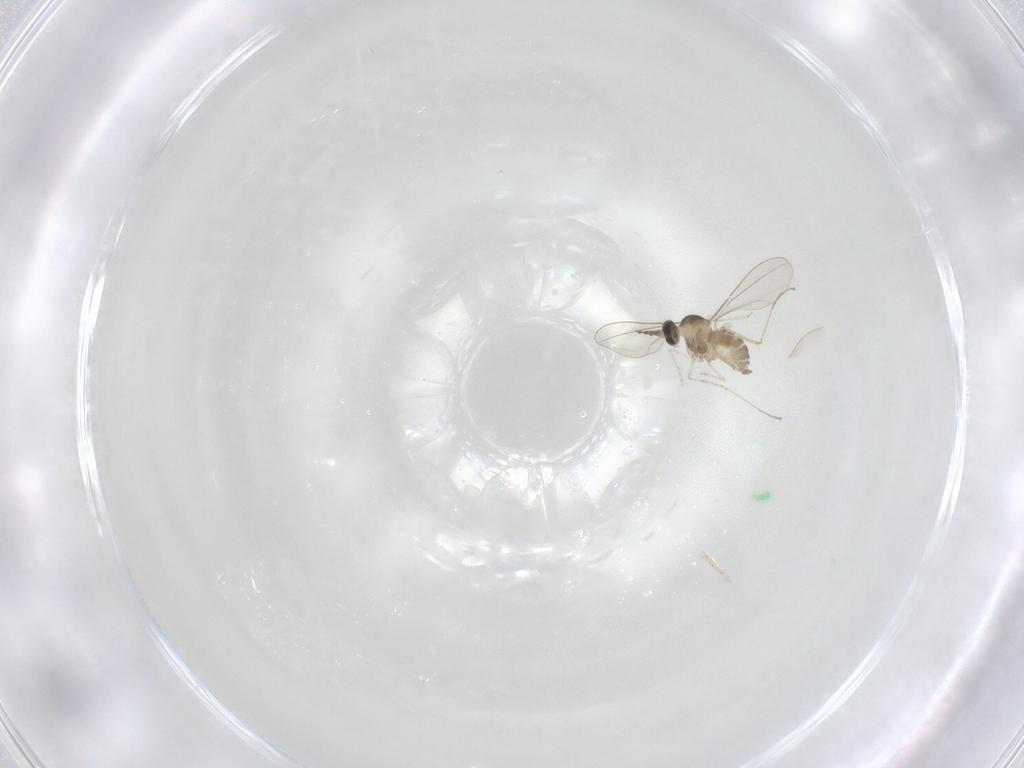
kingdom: Animalia
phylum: Arthropoda
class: Insecta
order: Diptera
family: Cecidomyiidae
